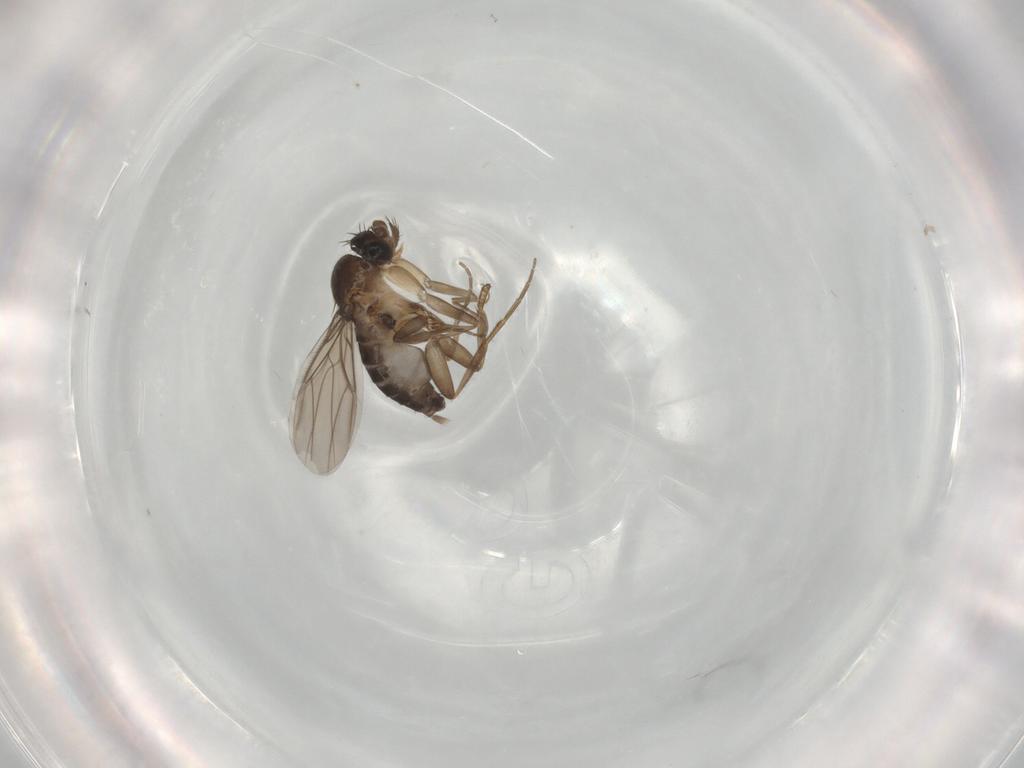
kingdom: Animalia
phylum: Arthropoda
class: Insecta
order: Diptera
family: Phoridae
